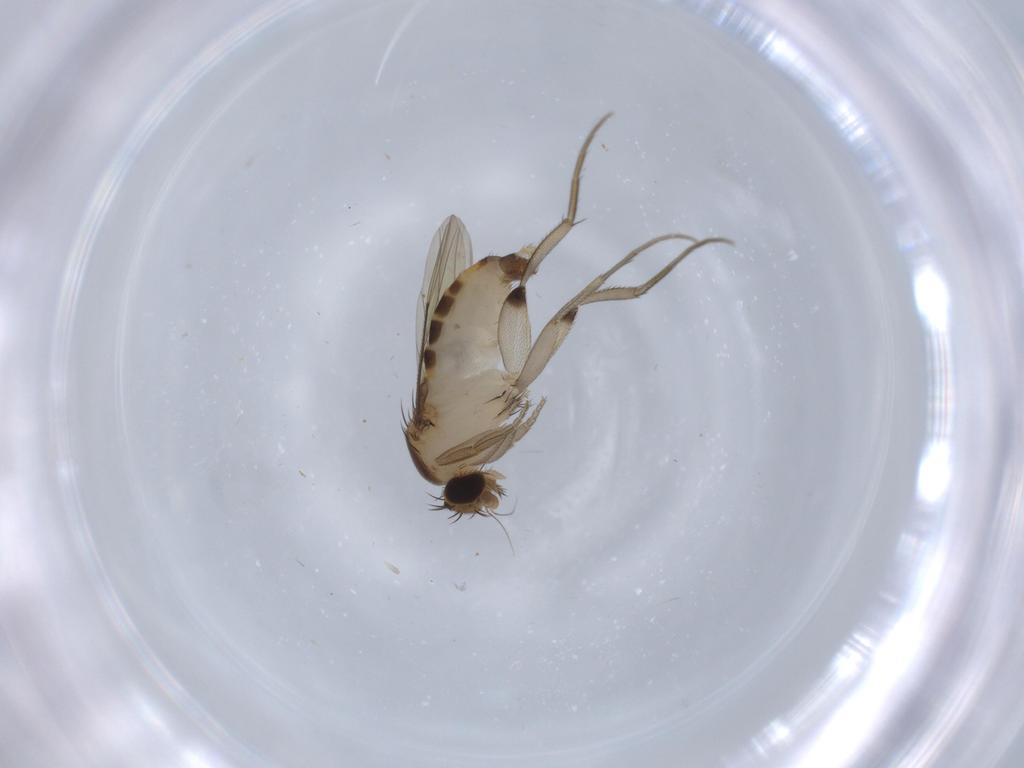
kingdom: Animalia
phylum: Arthropoda
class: Insecta
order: Diptera
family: Phoridae
